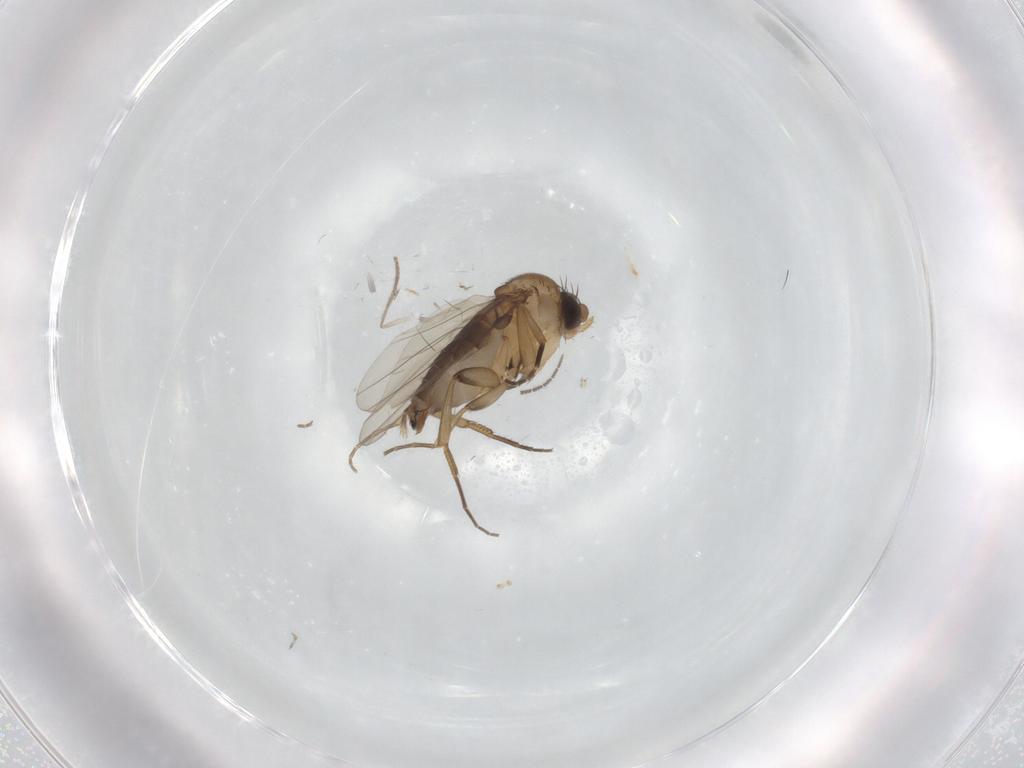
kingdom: Animalia
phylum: Arthropoda
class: Insecta
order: Diptera
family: Phoridae
